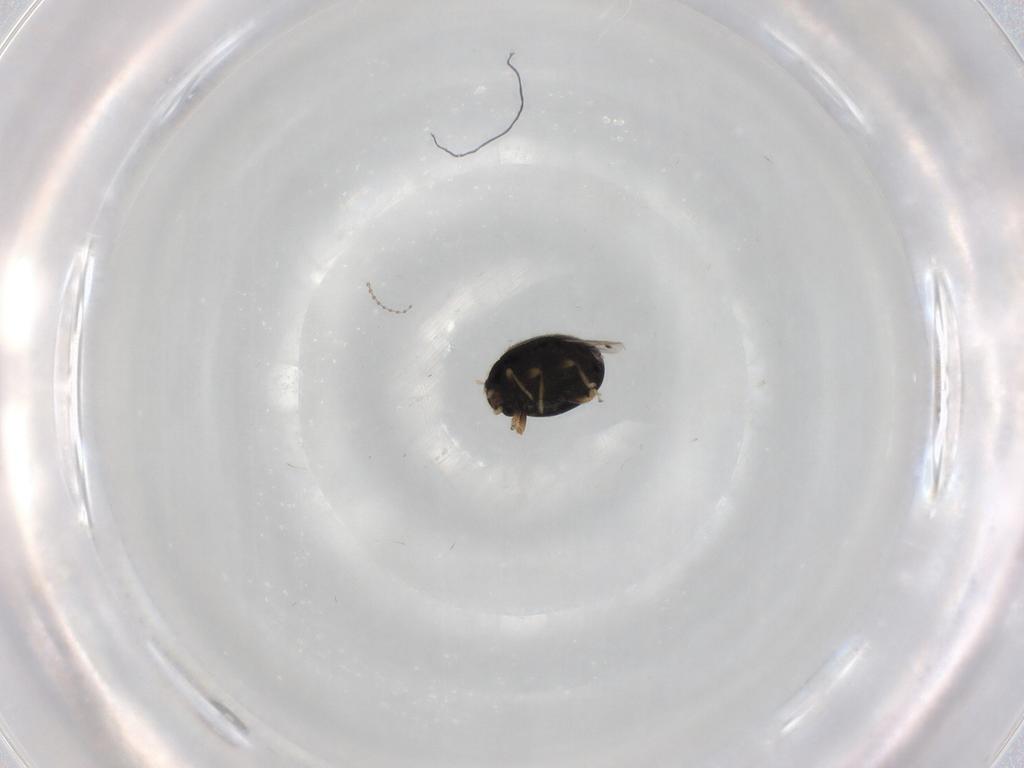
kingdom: Animalia
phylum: Arthropoda
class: Insecta
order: Coleoptera
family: Coccinellidae
